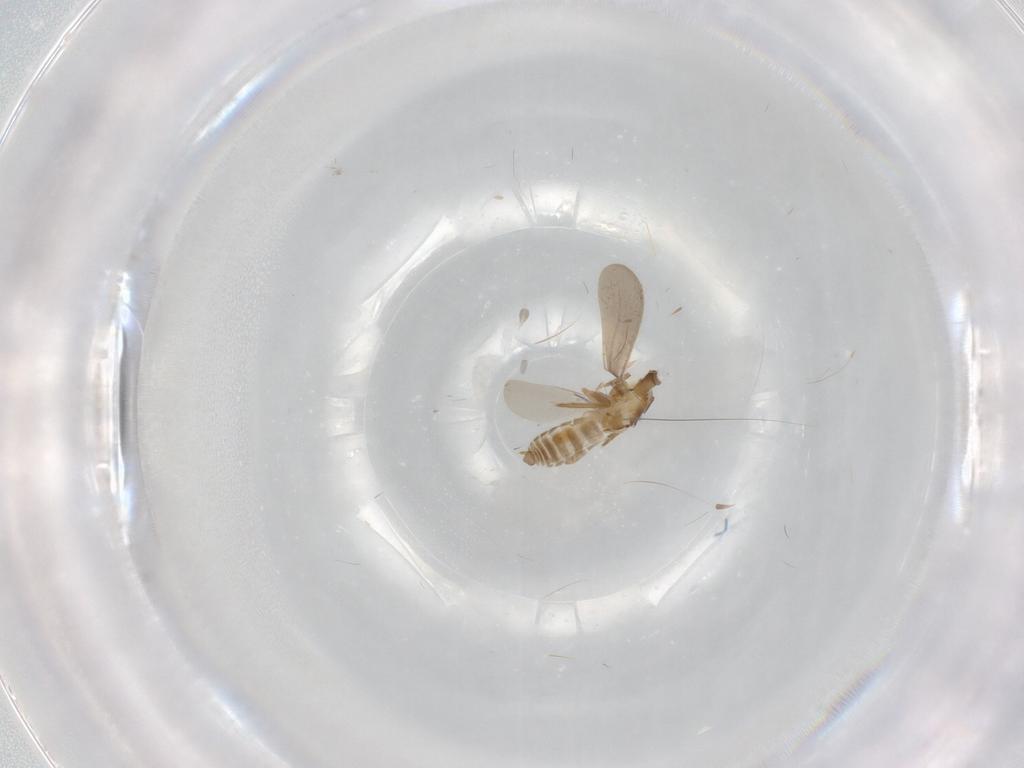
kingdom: Animalia
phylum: Arthropoda
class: Insecta
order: Diptera
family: Cecidomyiidae
